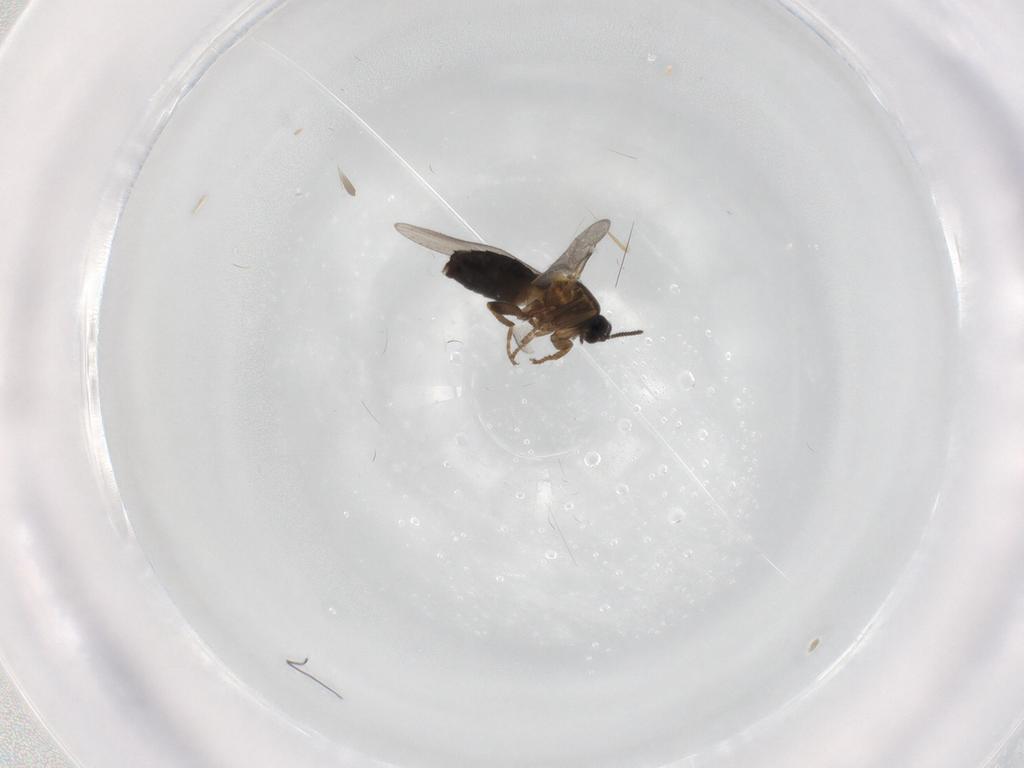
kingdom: Animalia
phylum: Arthropoda
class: Insecta
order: Diptera
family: Scatopsidae
